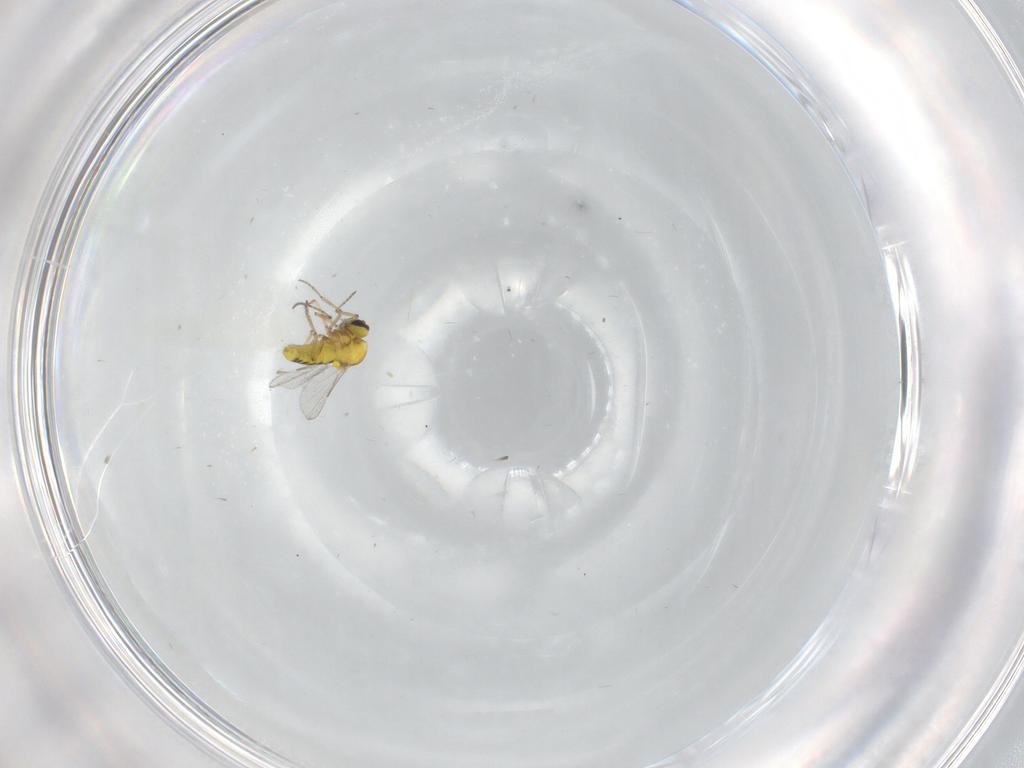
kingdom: Animalia
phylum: Arthropoda
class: Insecta
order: Diptera
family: Ceratopogonidae
